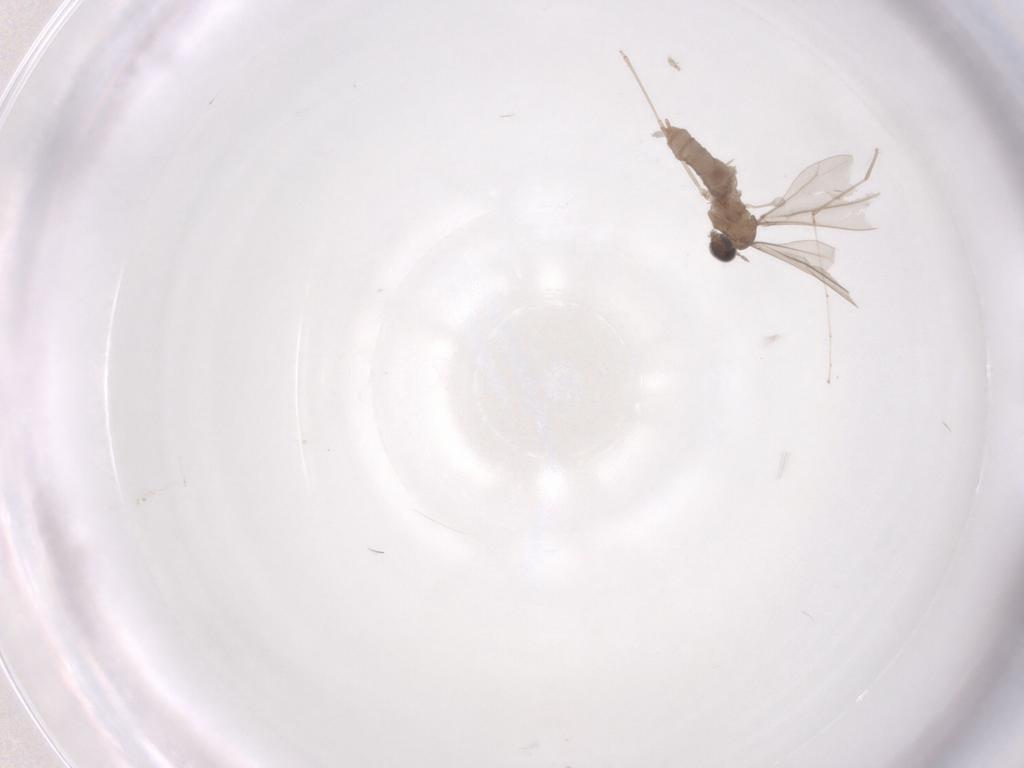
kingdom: Animalia
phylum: Arthropoda
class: Insecta
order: Diptera
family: Chironomidae
